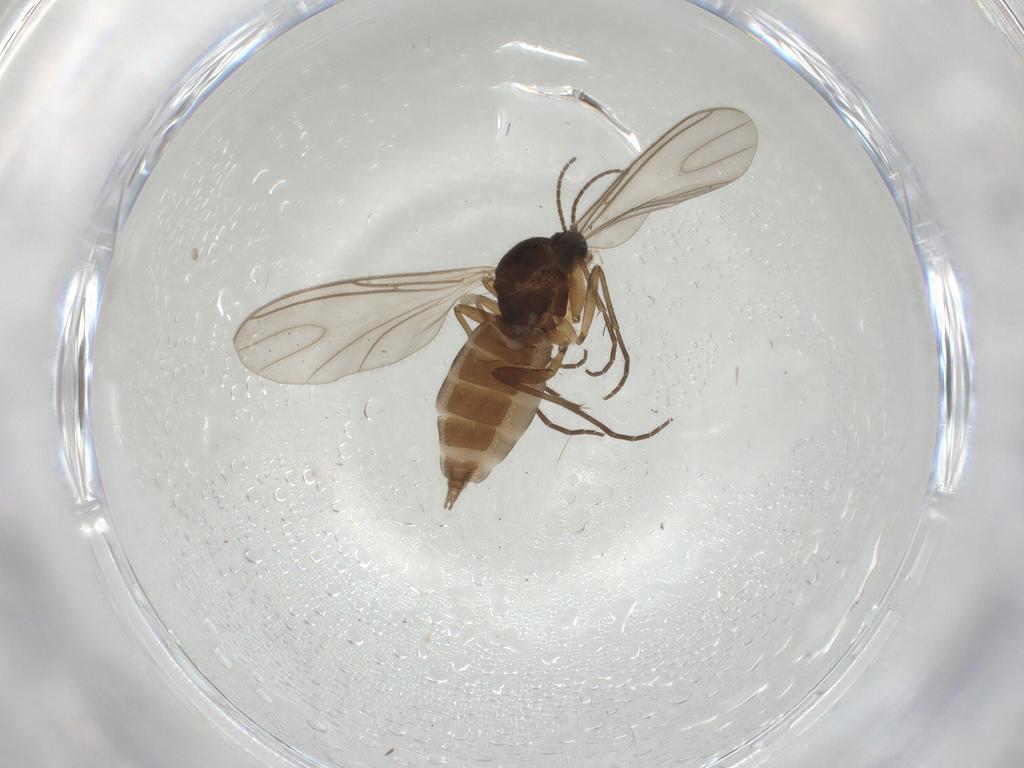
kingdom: Animalia
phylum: Arthropoda
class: Insecta
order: Diptera
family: Sciaridae
